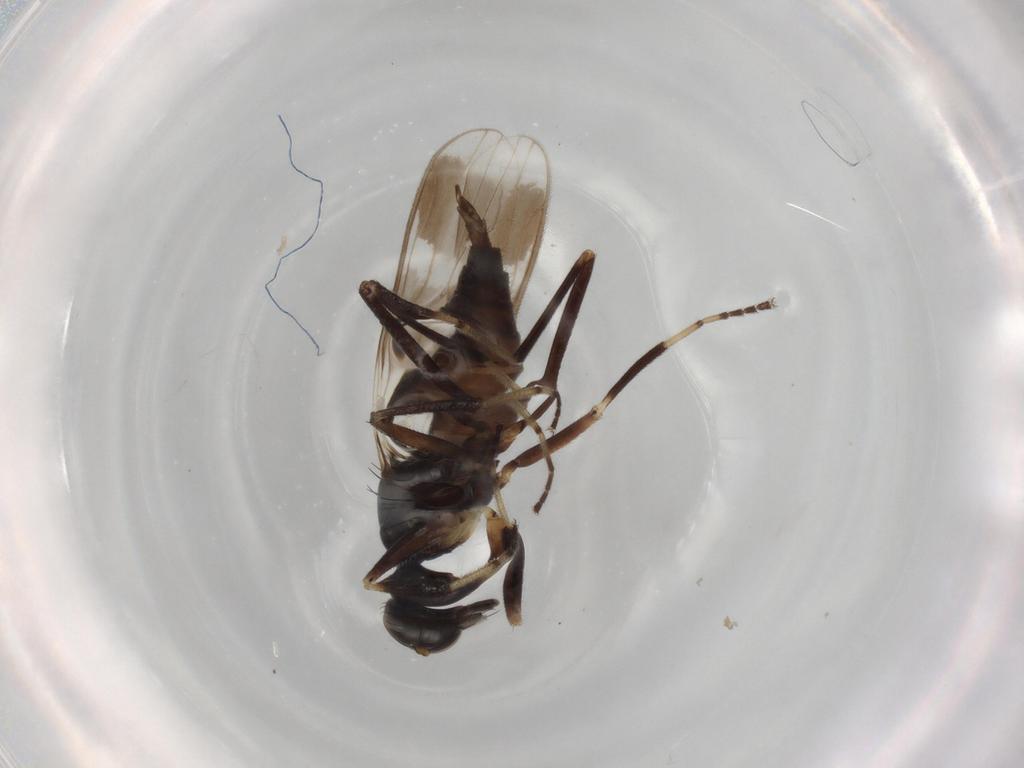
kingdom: Animalia
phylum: Arthropoda
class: Insecta
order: Diptera
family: Hybotidae
